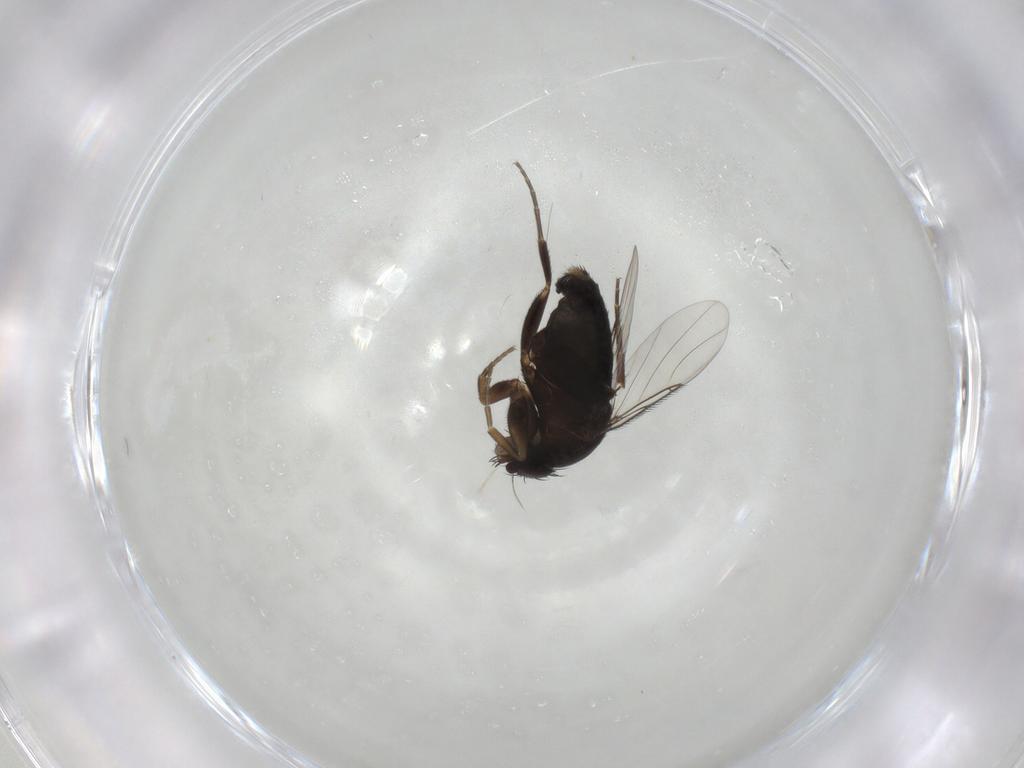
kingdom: Animalia
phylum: Arthropoda
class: Insecta
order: Diptera
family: Phoridae
